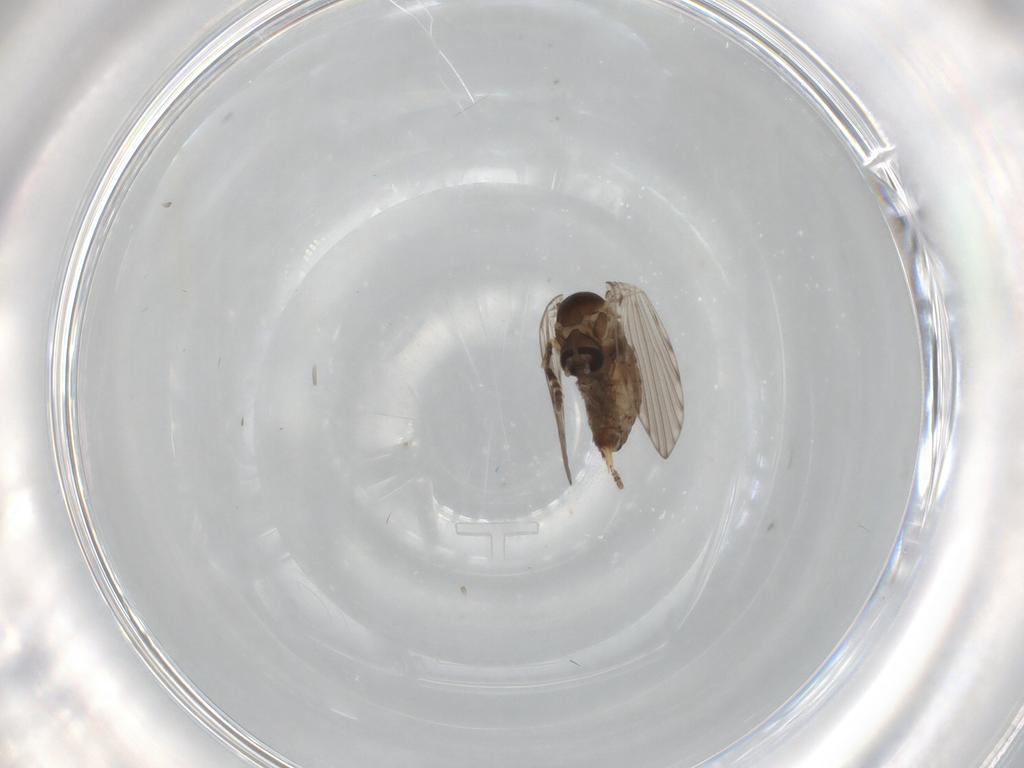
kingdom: Animalia
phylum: Arthropoda
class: Insecta
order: Diptera
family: Psychodidae
